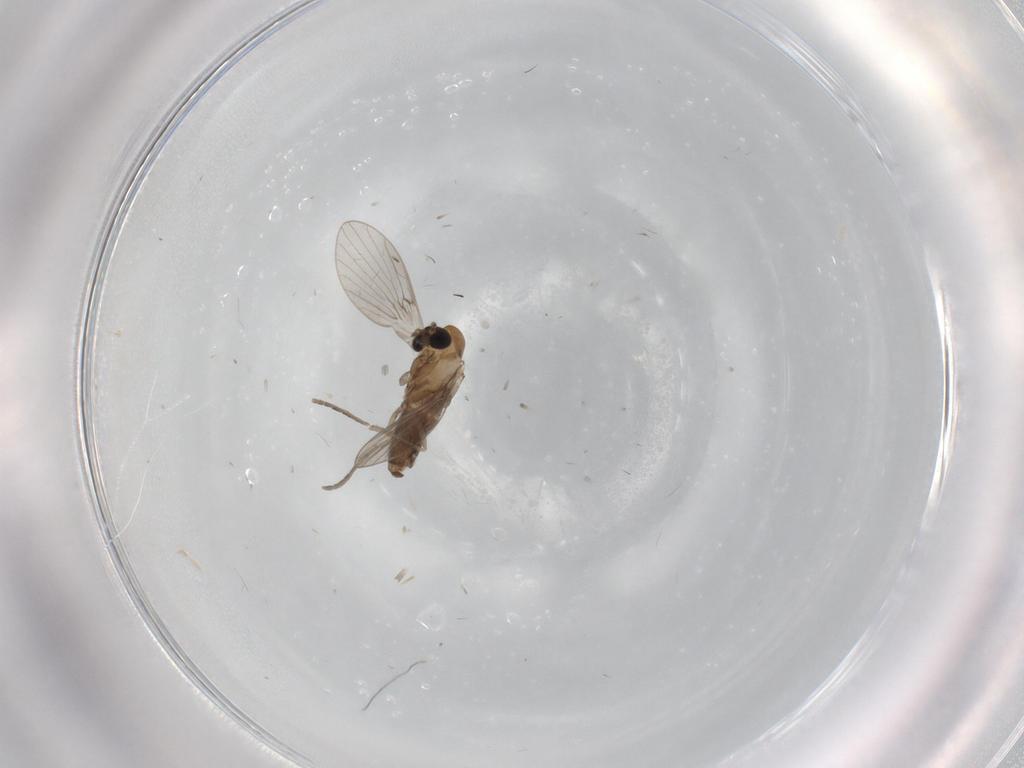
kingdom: Animalia
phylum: Arthropoda
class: Insecta
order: Diptera
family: Psychodidae
